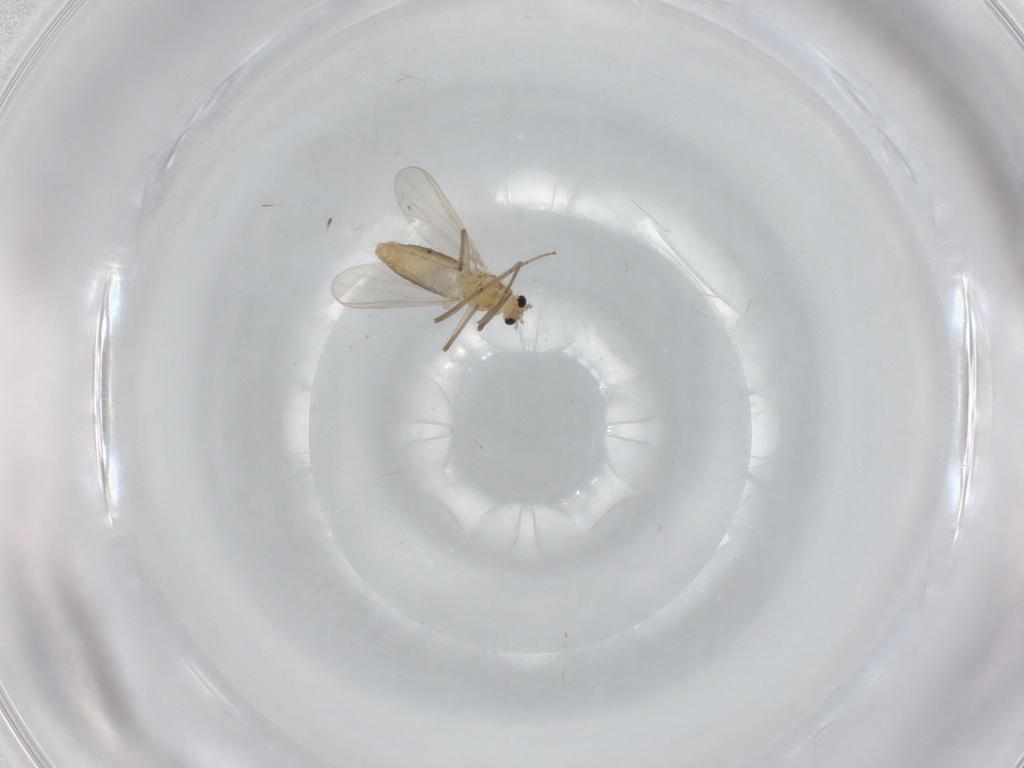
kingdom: Animalia
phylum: Arthropoda
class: Insecta
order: Diptera
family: Chironomidae
